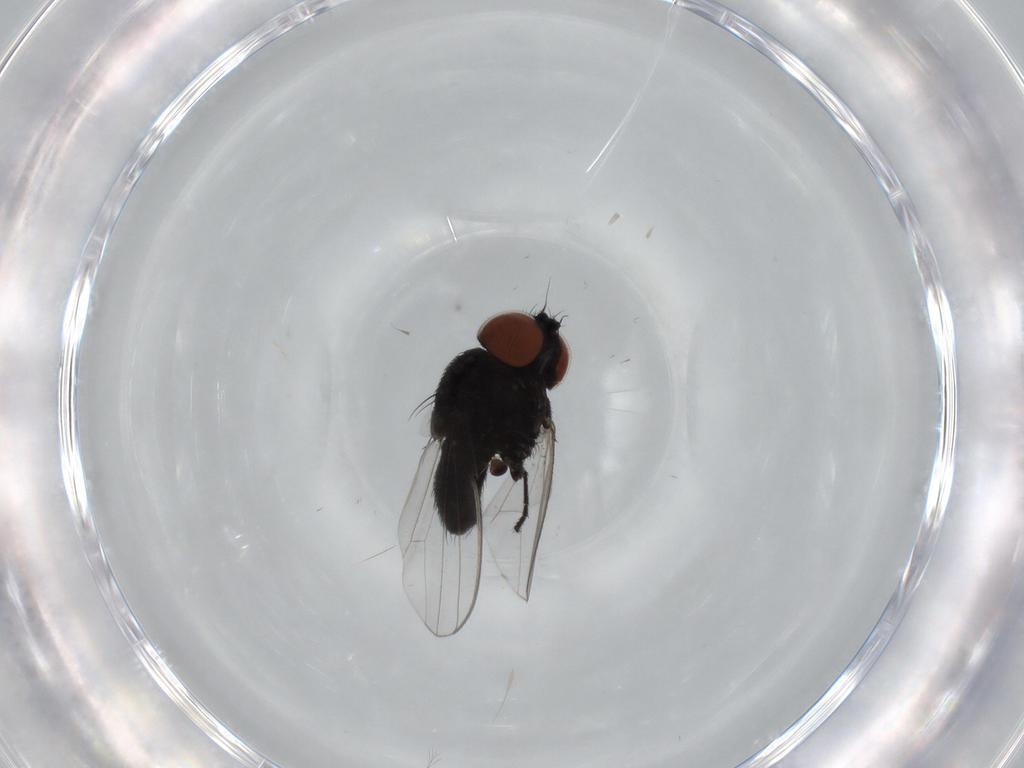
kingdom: Animalia
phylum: Arthropoda
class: Insecta
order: Diptera
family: Milichiidae
